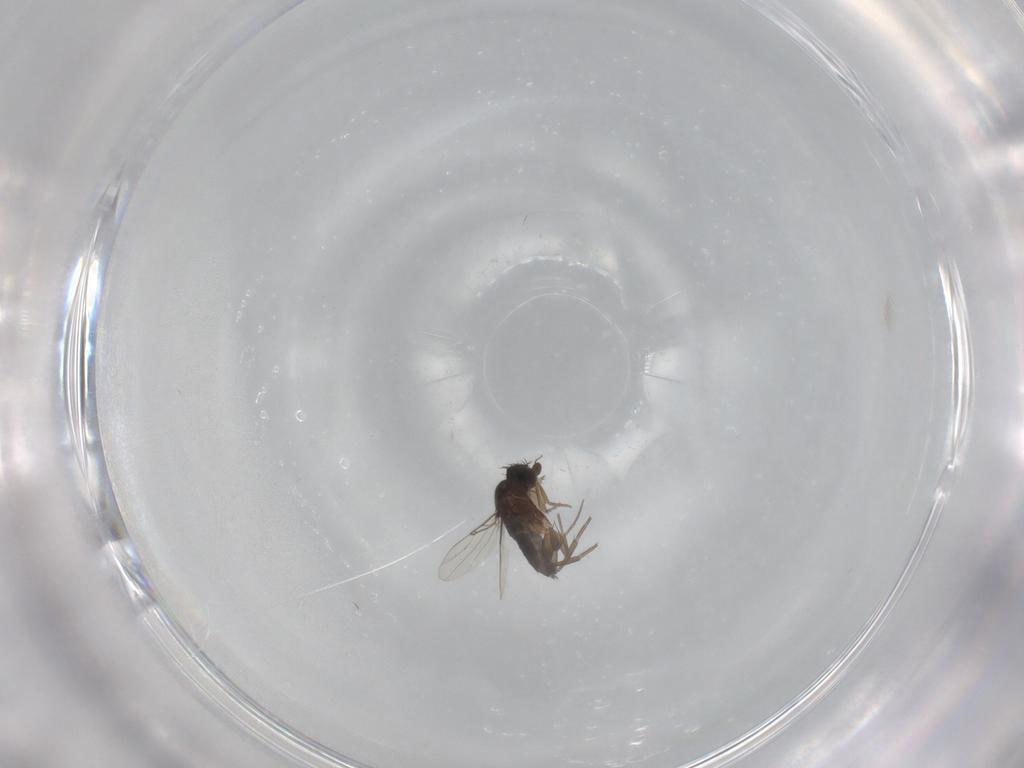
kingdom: Animalia
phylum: Arthropoda
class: Insecta
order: Diptera
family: Phoridae
